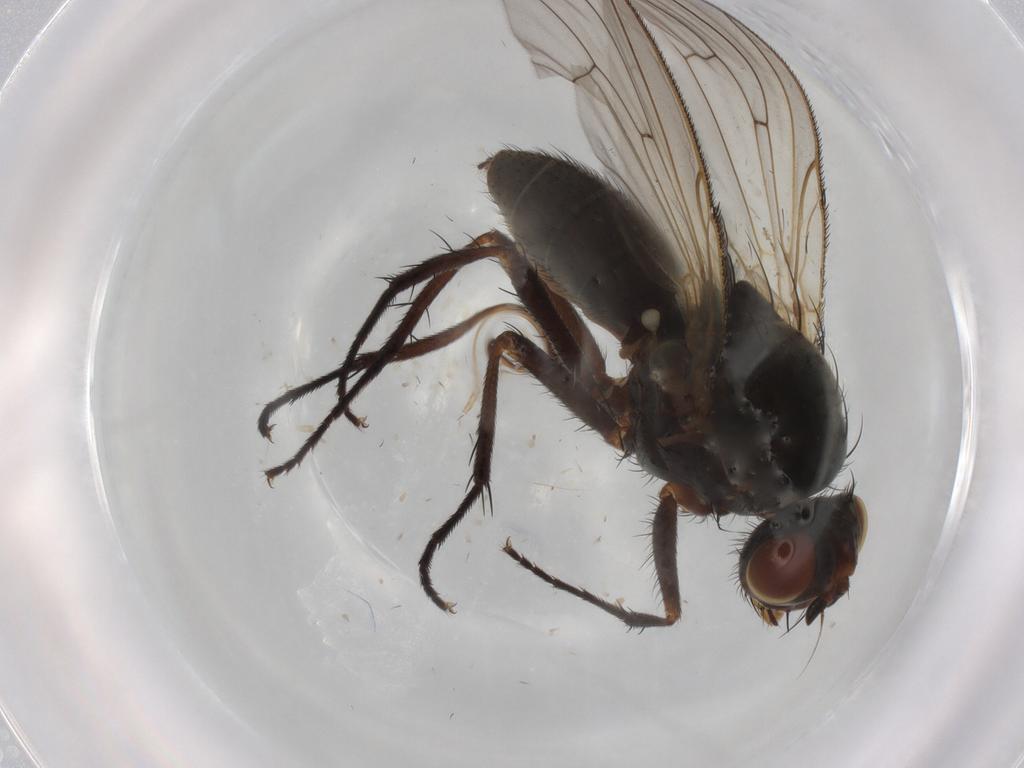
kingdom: Animalia
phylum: Arthropoda
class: Insecta
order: Diptera
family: Anthomyiidae
